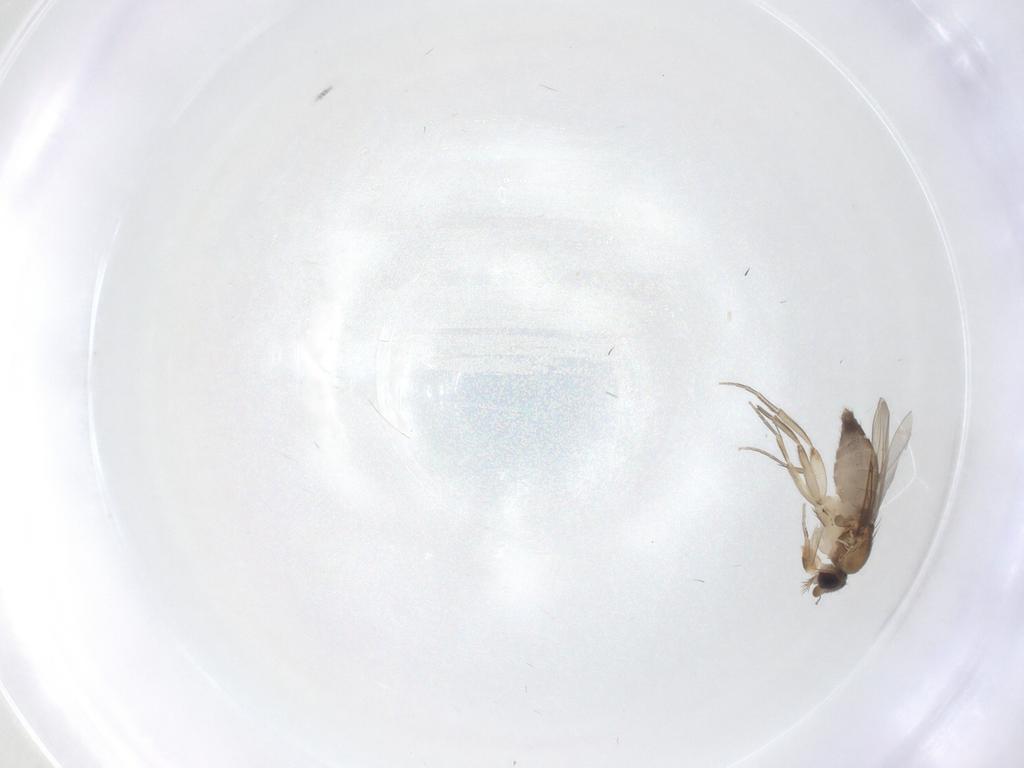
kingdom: Animalia
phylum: Arthropoda
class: Insecta
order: Diptera
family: Phoridae
